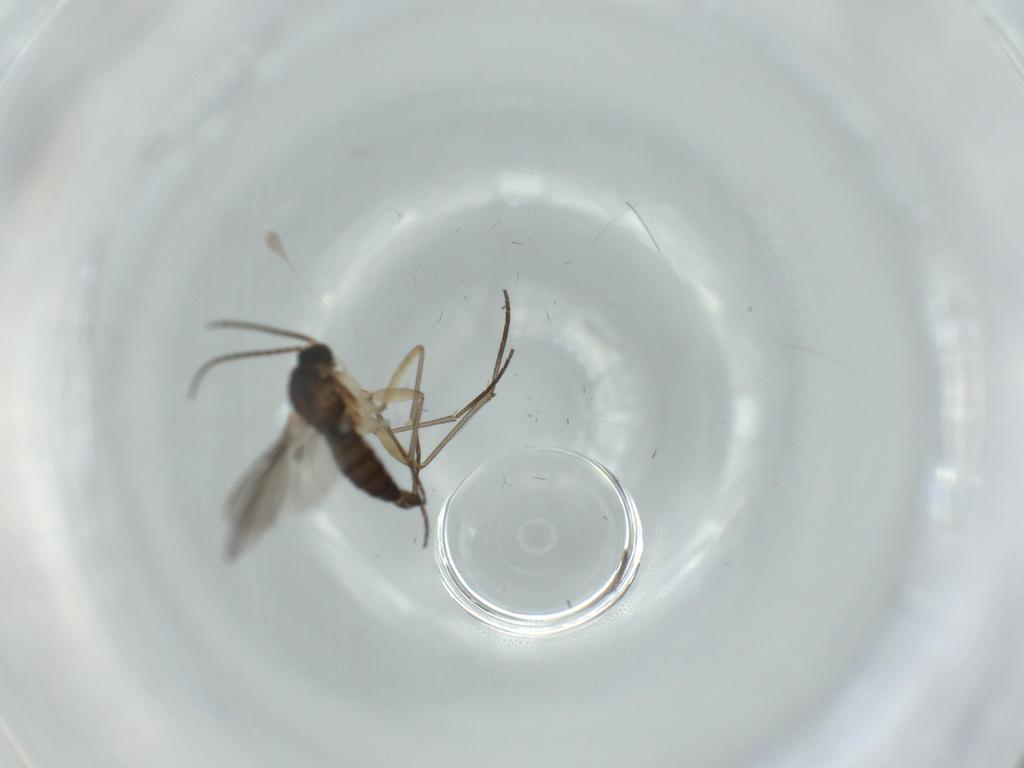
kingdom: Animalia
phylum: Arthropoda
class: Insecta
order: Diptera
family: Sciaridae
